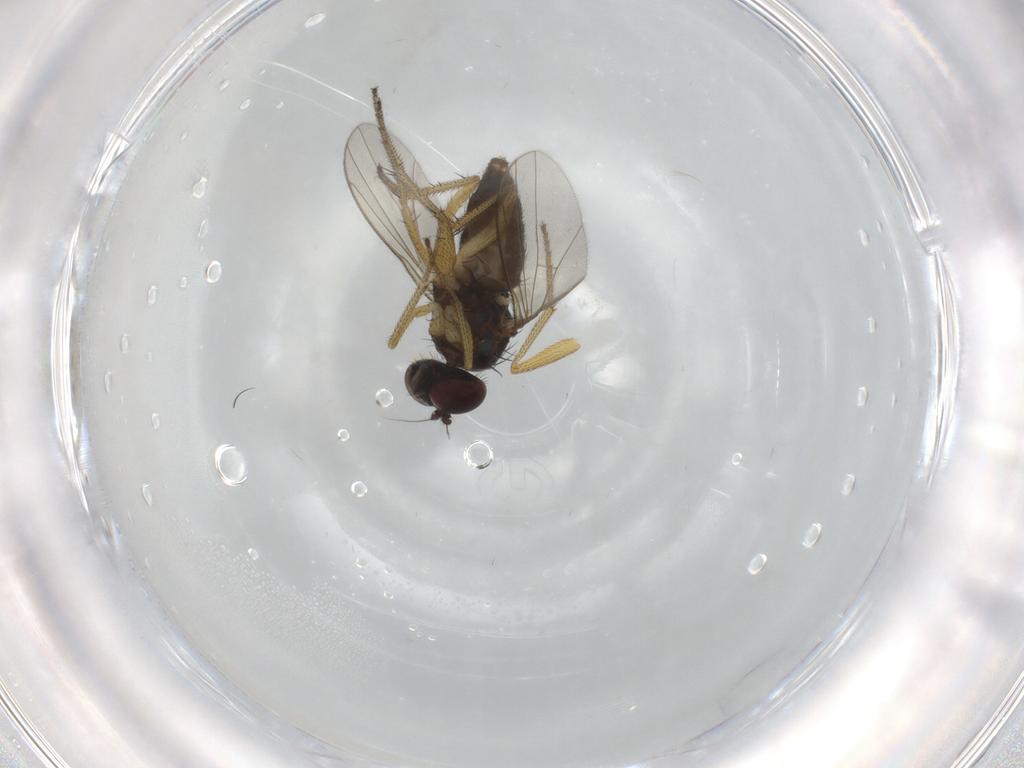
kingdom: Animalia
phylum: Arthropoda
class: Insecta
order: Diptera
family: Dolichopodidae
